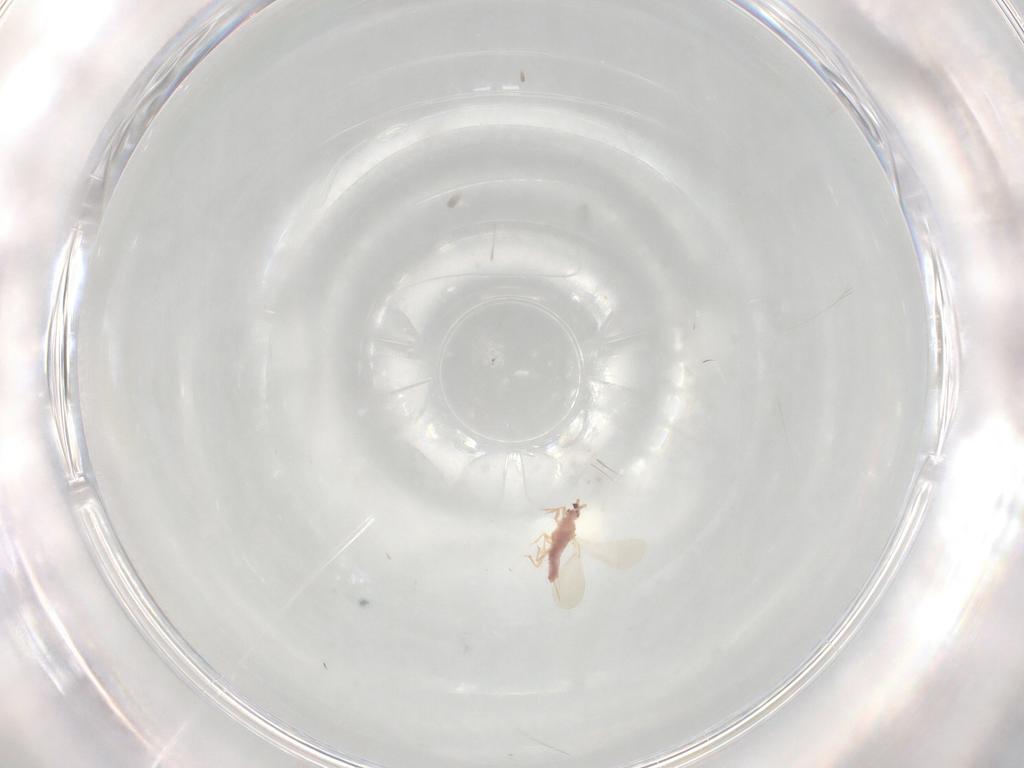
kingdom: Animalia
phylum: Arthropoda
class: Insecta
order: Hemiptera
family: Pseudococcidae
